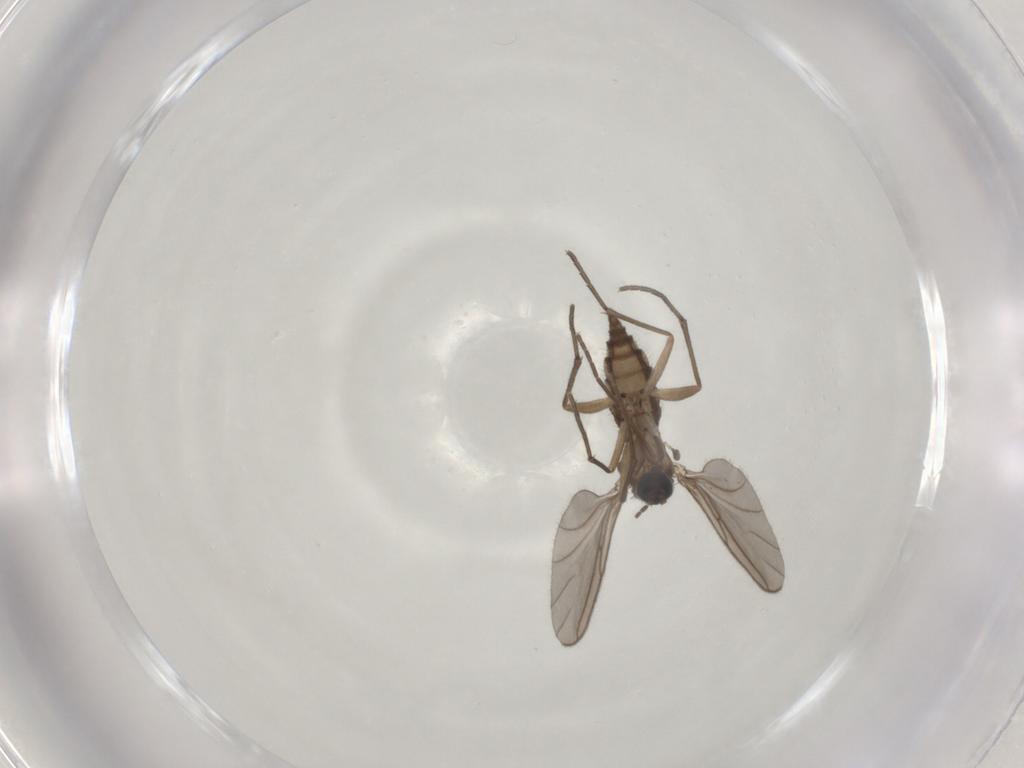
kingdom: Animalia
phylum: Arthropoda
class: Insecta
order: Diptera
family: Sciaridae
